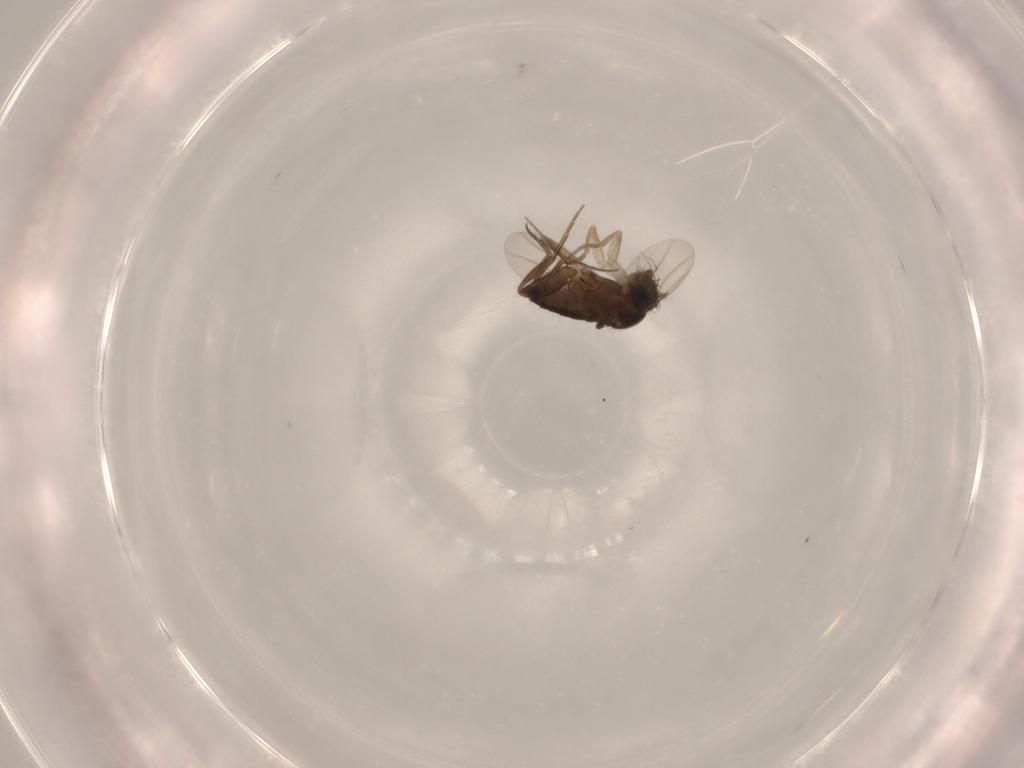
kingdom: Animalia
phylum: Arthropoda
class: Insecta
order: Diptera
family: Phoridae
